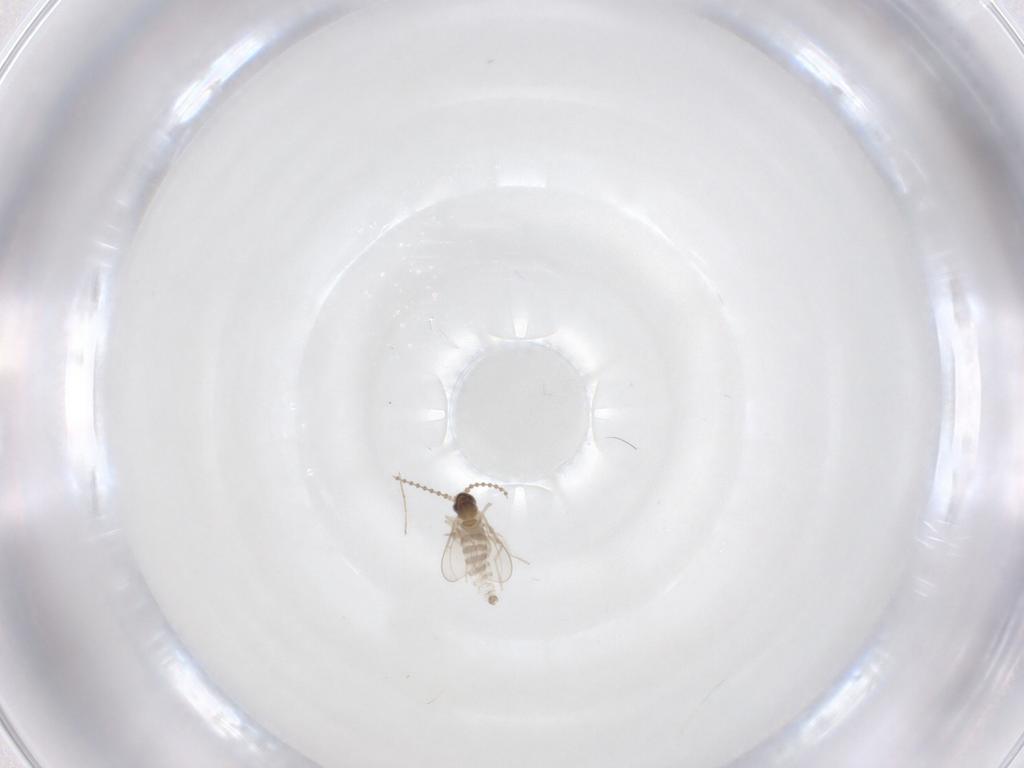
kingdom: Animalia
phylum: Arthropoda
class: Insecta
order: Diptera
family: Cecidomyiidae
